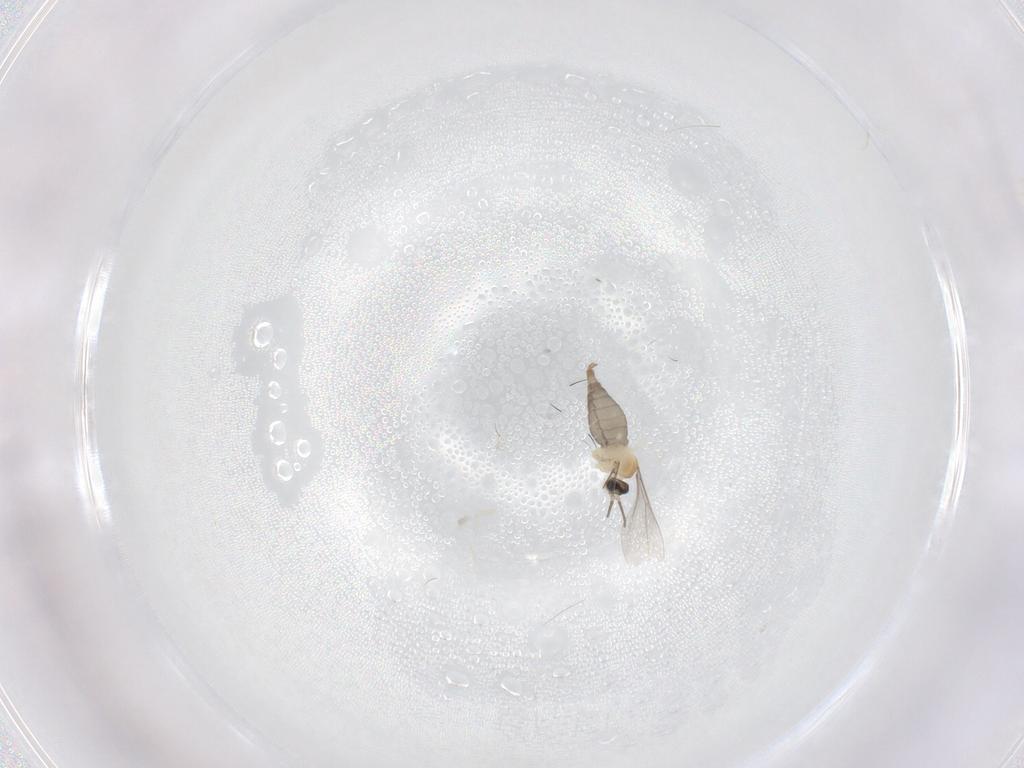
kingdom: Animalia
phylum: Arthropoda
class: Insecta
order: Diptera
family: Cecidomyiidae
